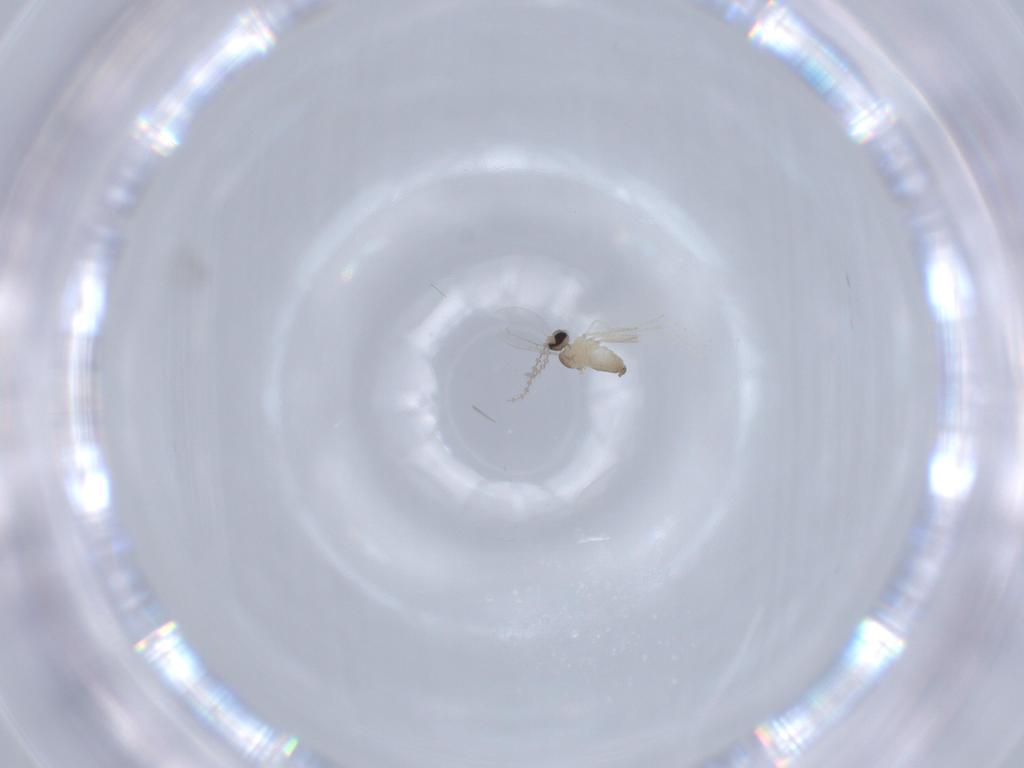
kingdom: Animalia
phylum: Arthropoda
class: Insecta
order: Diptera
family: Cecidomyiidae
